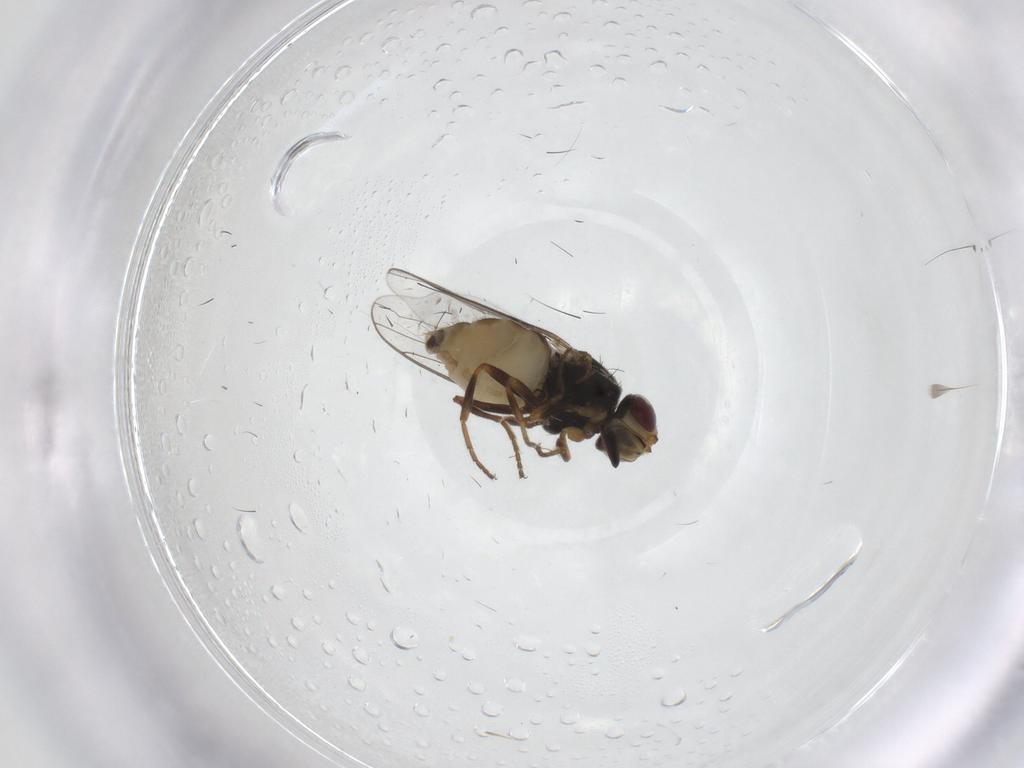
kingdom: Animalia
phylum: Arthropoda
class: Insecta
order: Diptera
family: Chloropidae
